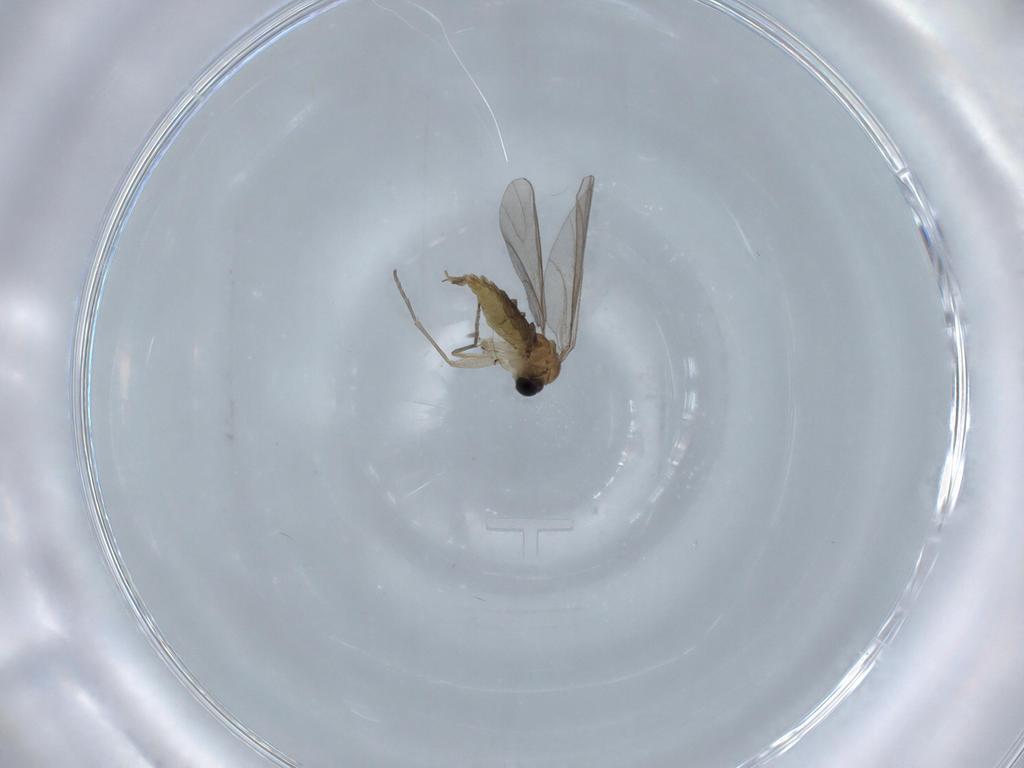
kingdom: Animalia
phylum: Arthropoda
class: Insecta
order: Diptera
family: Sciaridae
